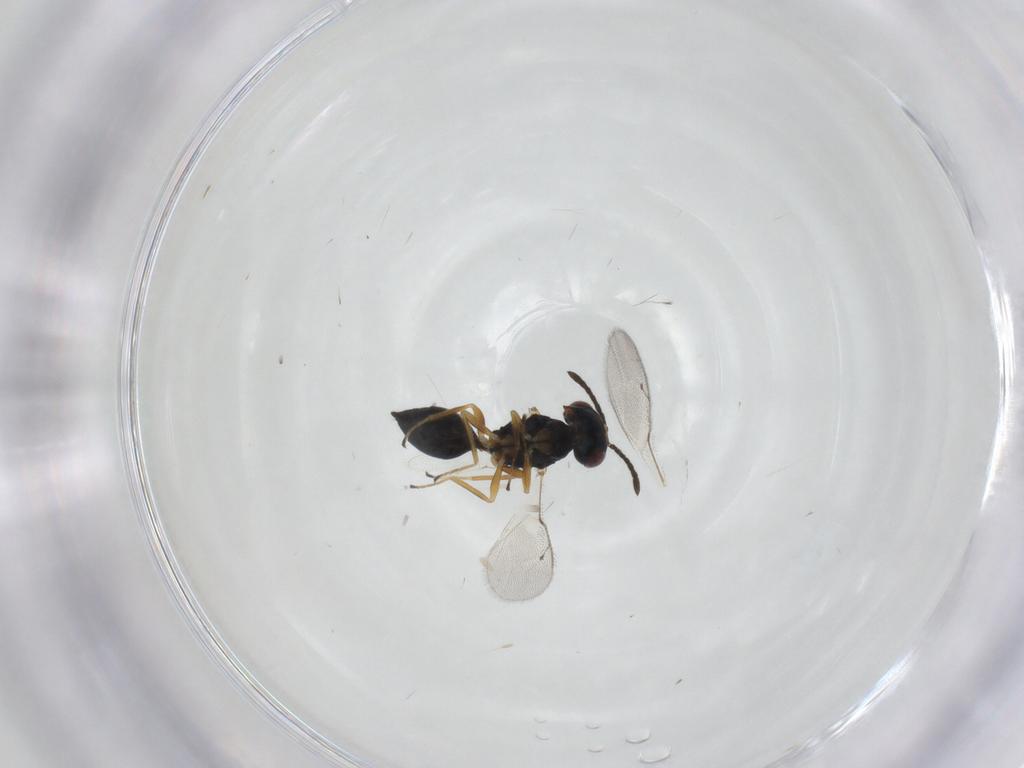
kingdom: Animalia
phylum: Arthropoda
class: Insecta
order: Hymenoptera
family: Pteromalidae
